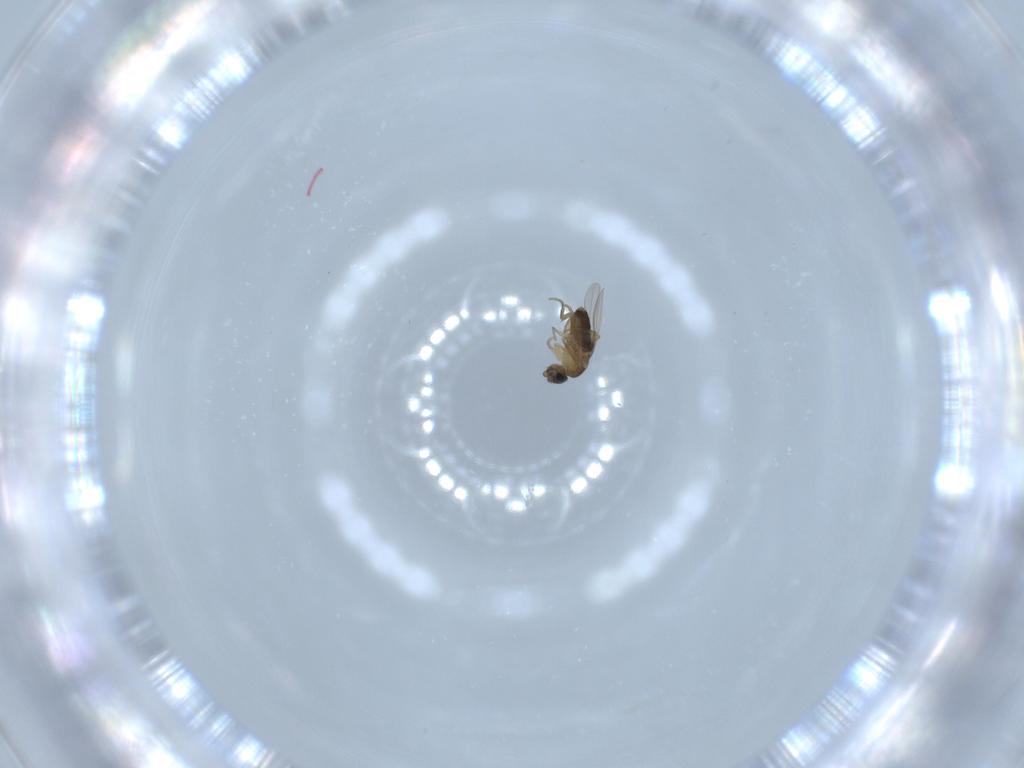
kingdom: Animalia
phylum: Arthropoda
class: Insecta
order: Diptera
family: Phoridae
